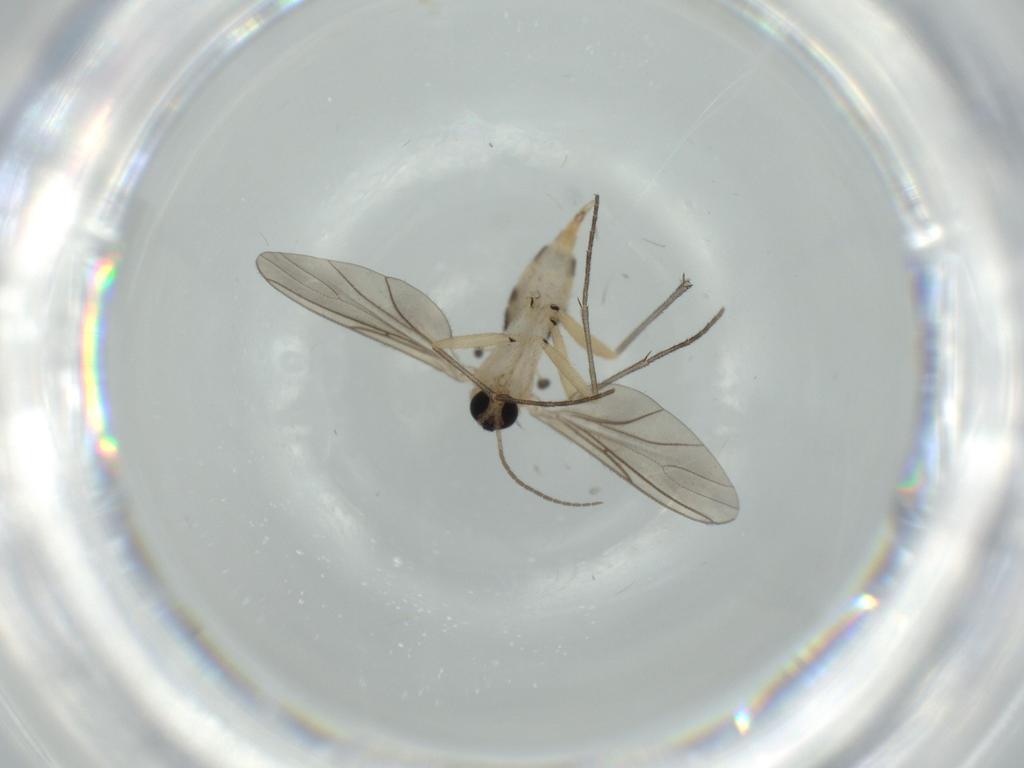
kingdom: Animalia
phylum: Arthropoda
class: Insecta
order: Diptera
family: Sciaridae
